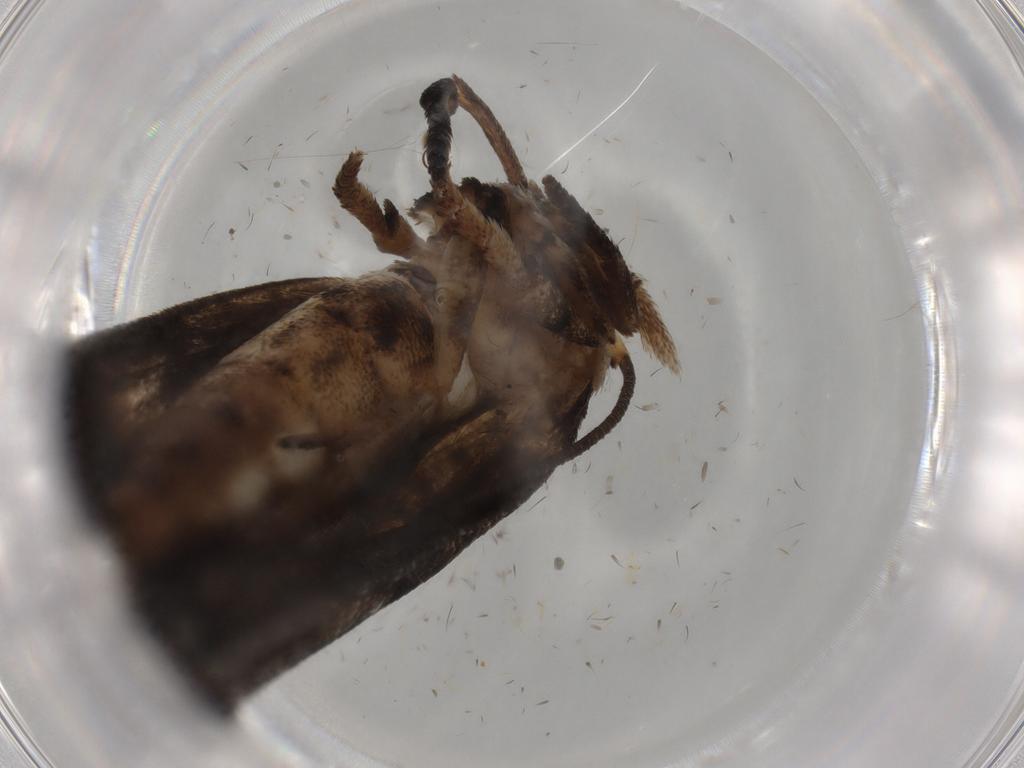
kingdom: Animalia
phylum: Arthropoda
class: Insecta
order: Lepidoptera
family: Yponomeutidae
